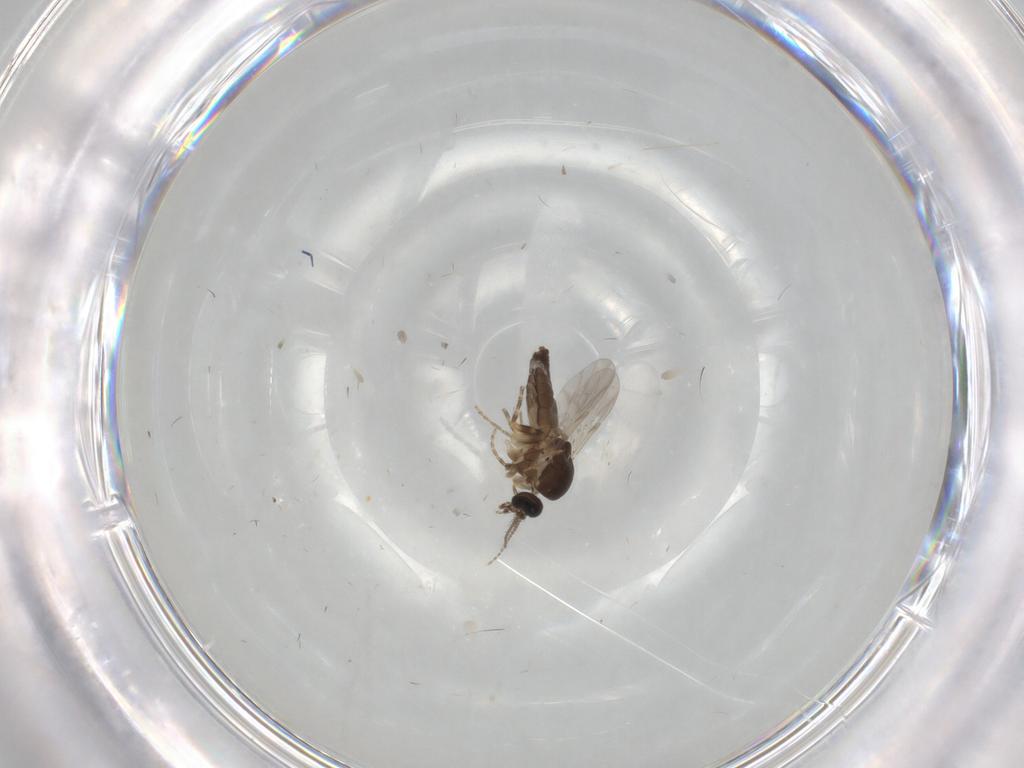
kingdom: Animalia
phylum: Arthropoda
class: Insecta
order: Diptera
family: Ceratopogonidae
